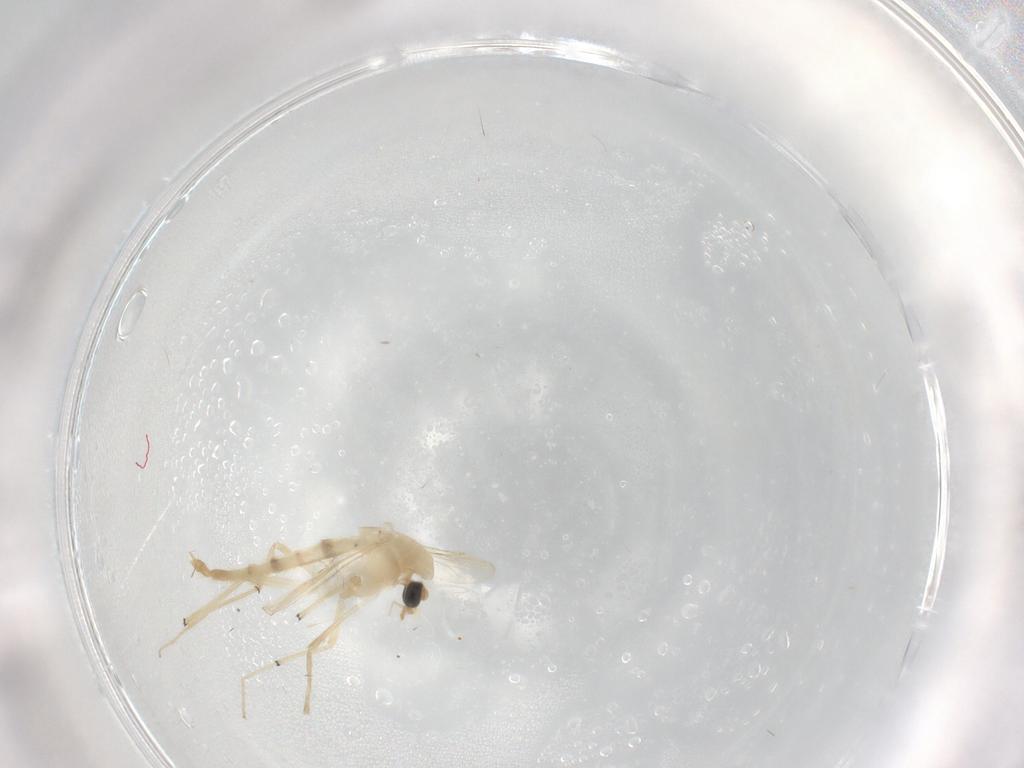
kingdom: Animalia
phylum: Arthropoda
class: Insecta
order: Diptera
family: Chironomidae
